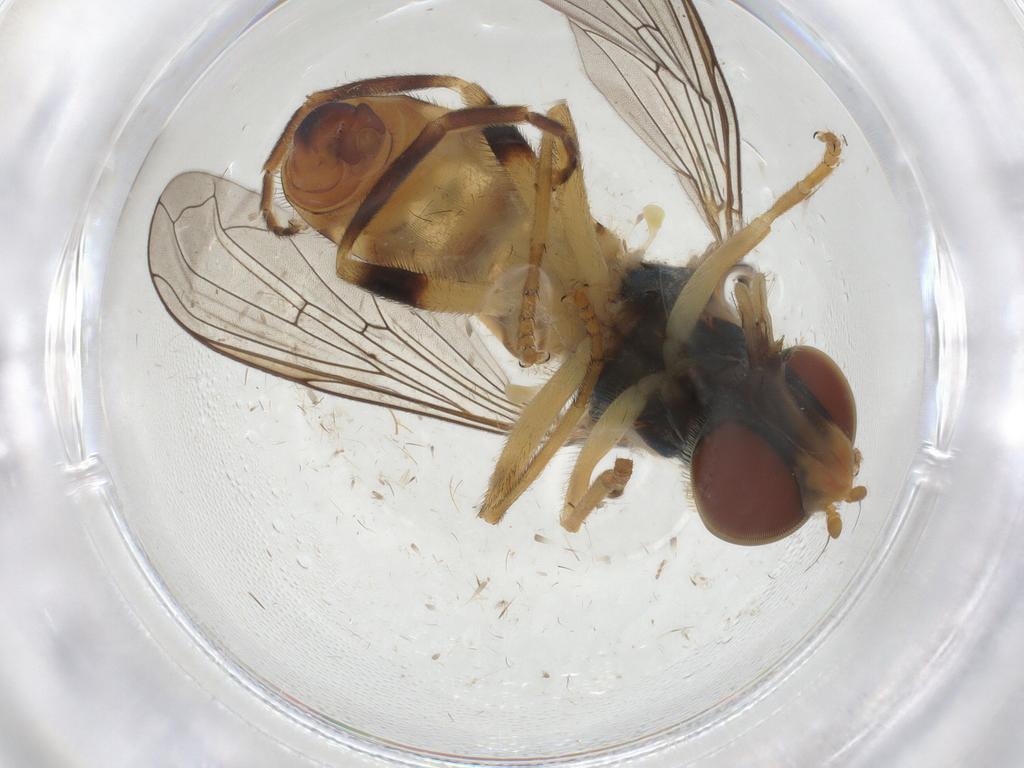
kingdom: Animalia
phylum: Arthropoda
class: Insecta
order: Diptera
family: Syrphidae
